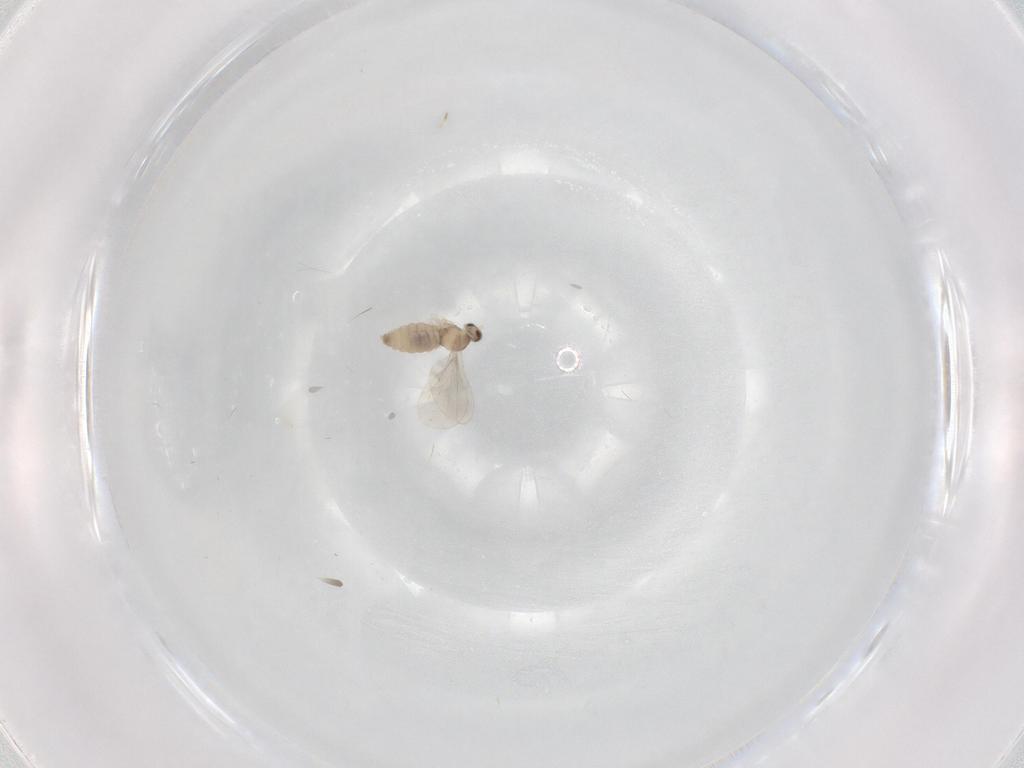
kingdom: Animalia
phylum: Arthropoda
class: Insecta
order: Diptera
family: Cecidomyiidae
